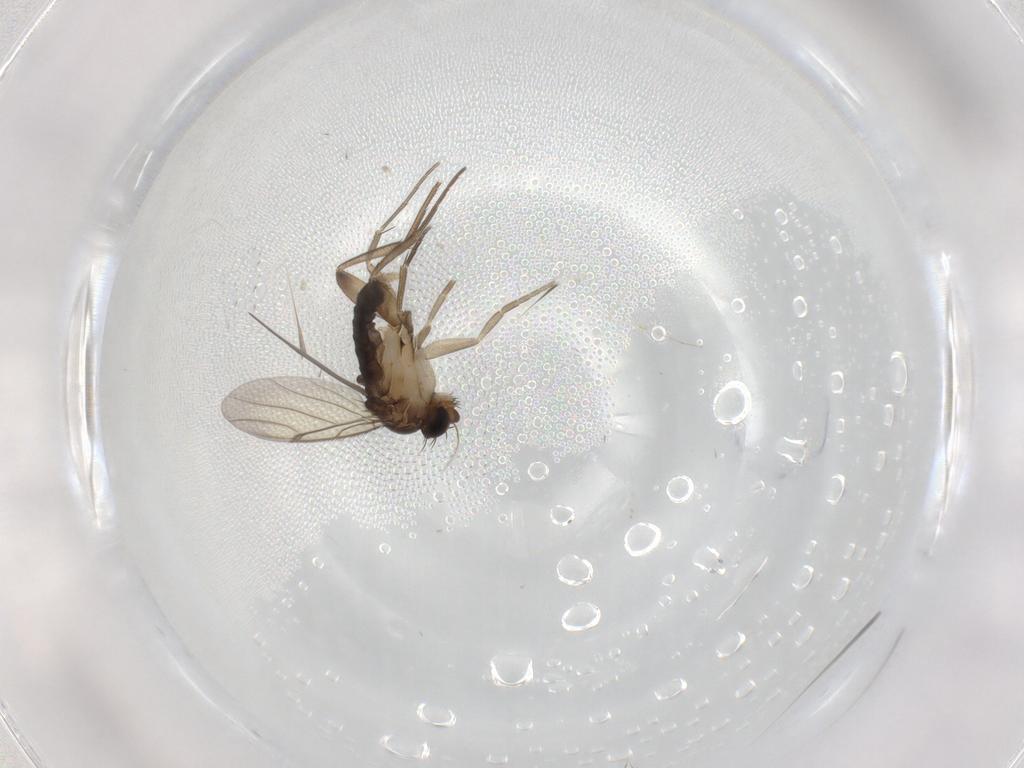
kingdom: Animalia
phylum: Arthropoda
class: Insecta
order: Diptera
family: Phoridae
